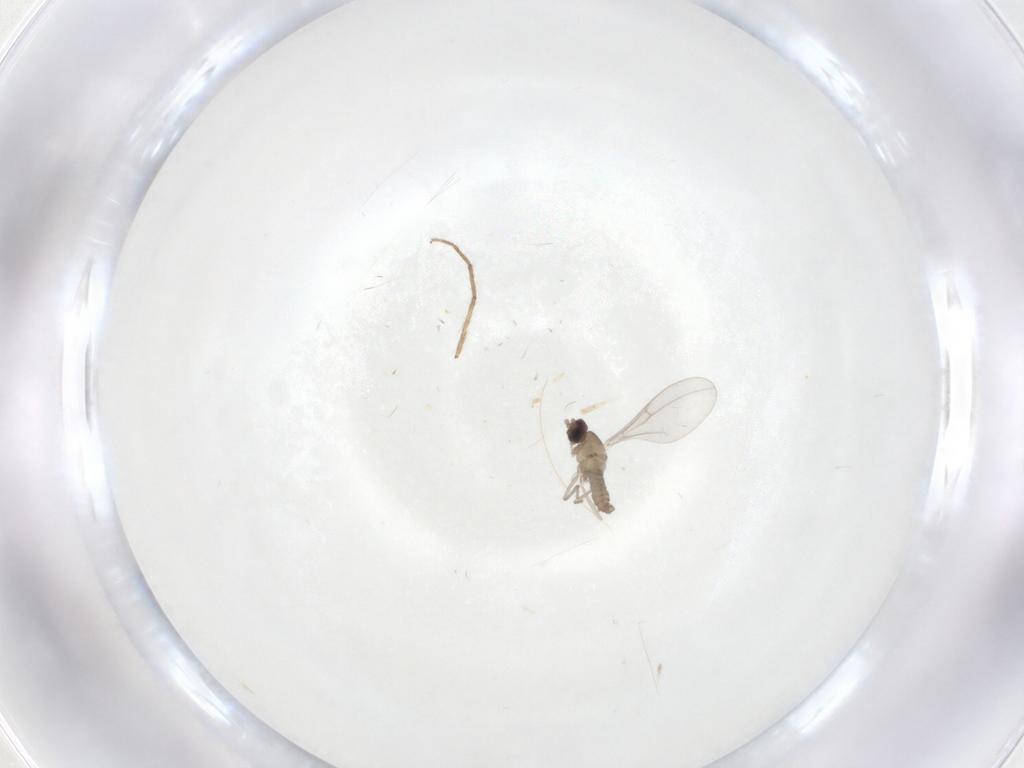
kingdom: Animalia
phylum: Arthropoda
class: Insecta
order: Diptera
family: Cecidomyiidae
